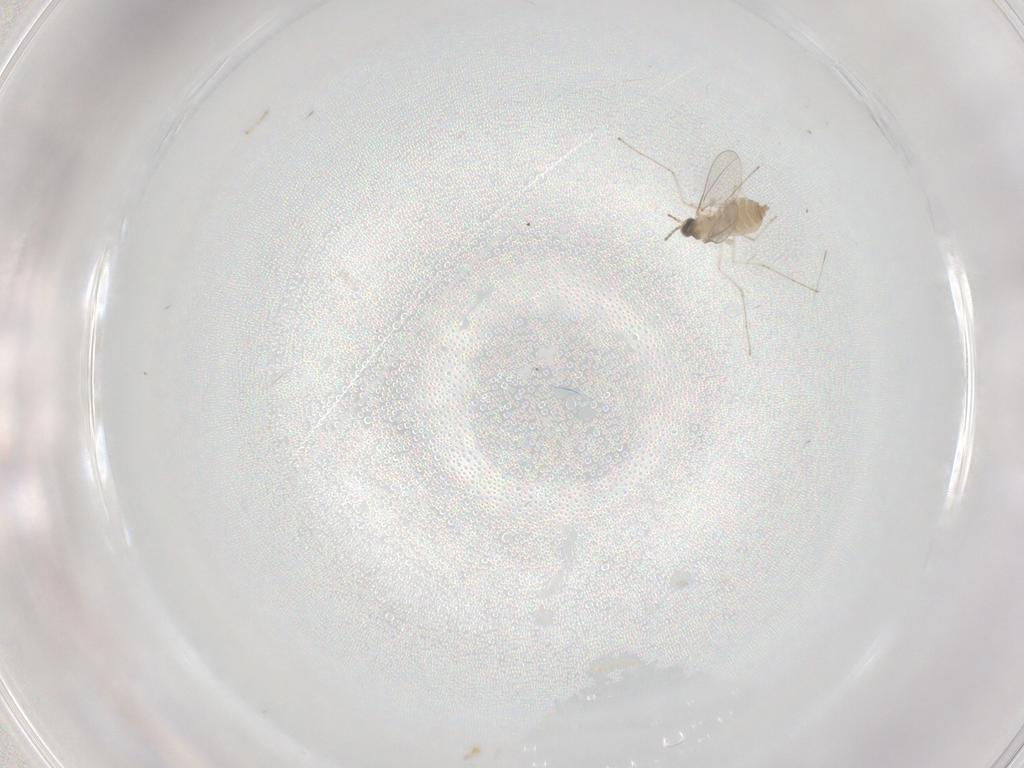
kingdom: Animalia
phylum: Arthropoda
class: Insecta
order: Diptera
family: Cecidomyiidae
